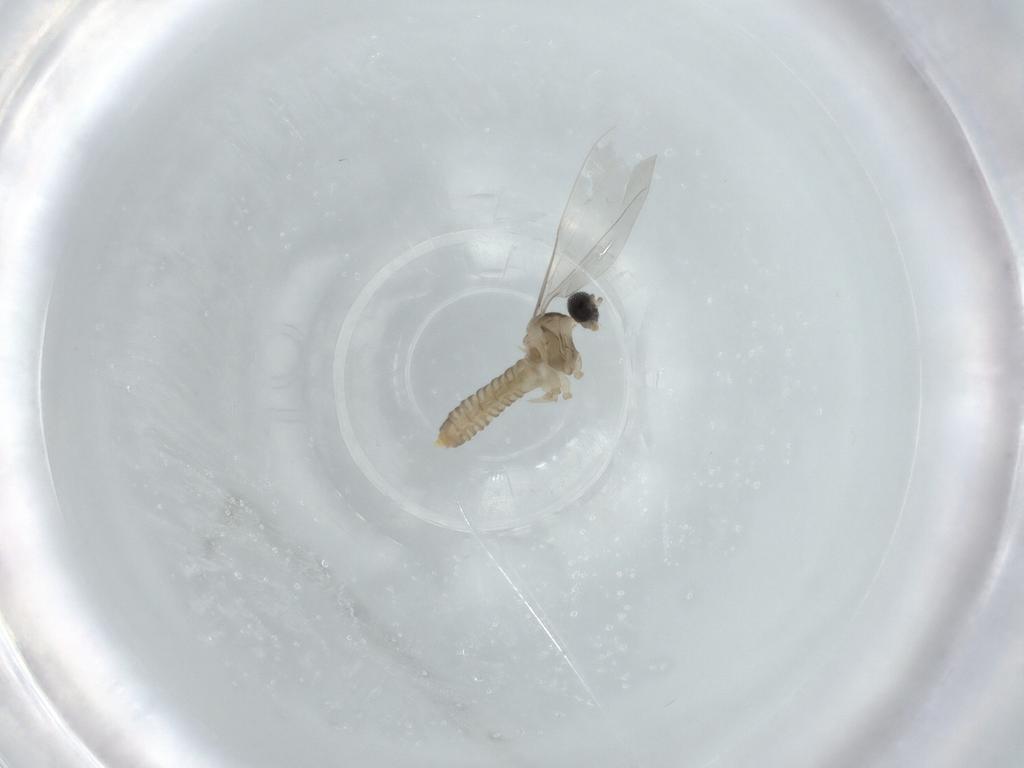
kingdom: Animalia
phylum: Arthropoda
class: Insecta
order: Diptera
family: Cecidomyiidae
